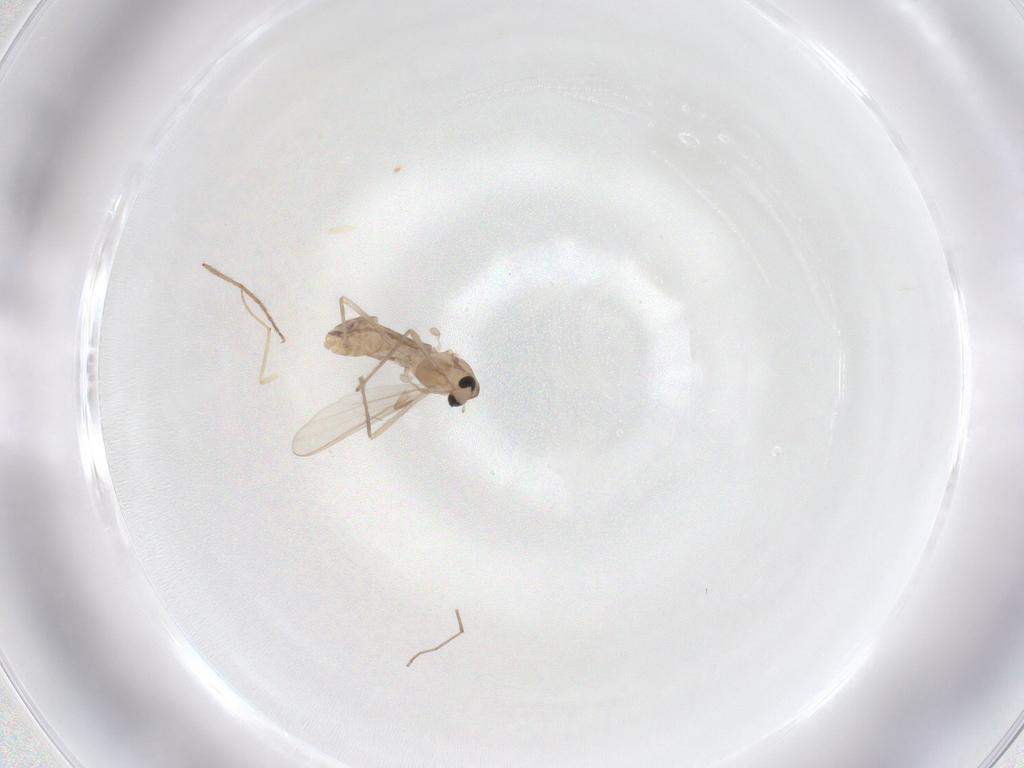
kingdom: Animalia
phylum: Arthropoda
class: Insecta
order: Diptera
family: Chironomidae
